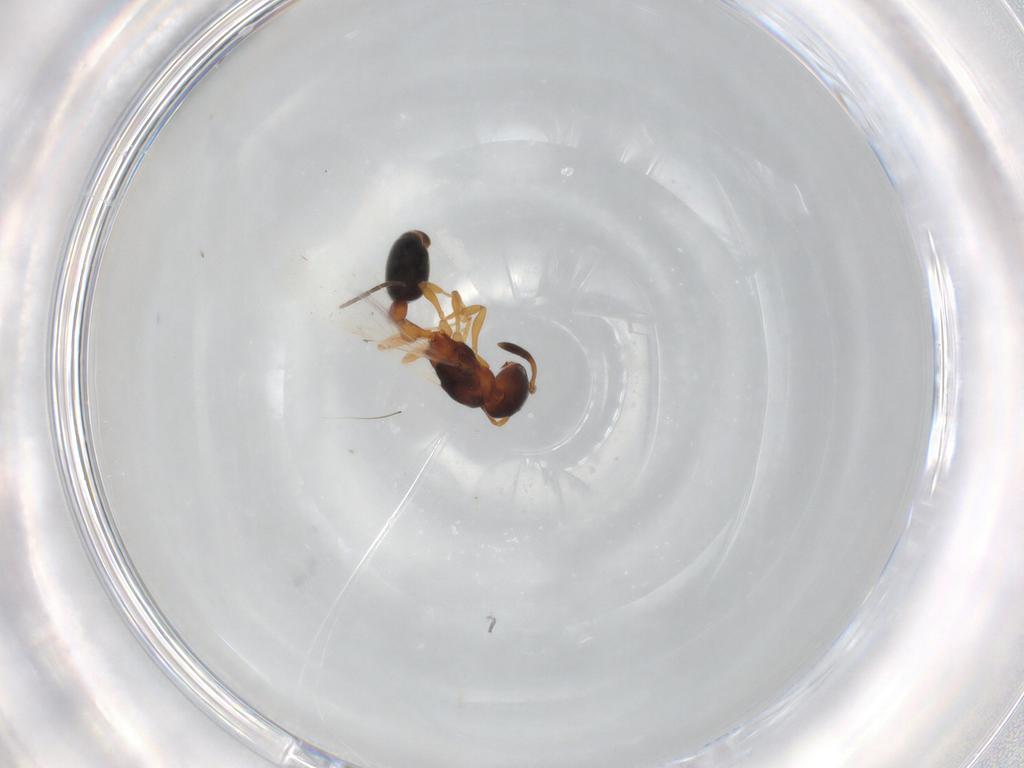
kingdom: Animalia
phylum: Arthropoda
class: Insecta
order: Hymenoptera
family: Formicidae
